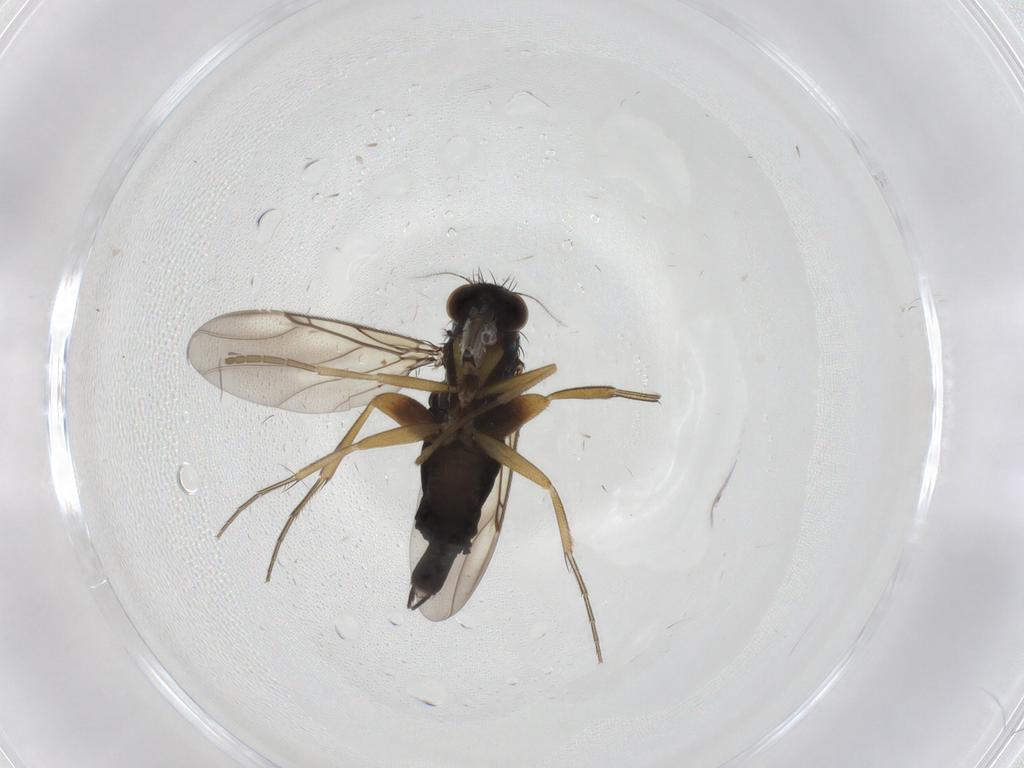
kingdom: Animalia
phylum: Arthropoda
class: Insecta
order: Diptera
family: Phoridae
